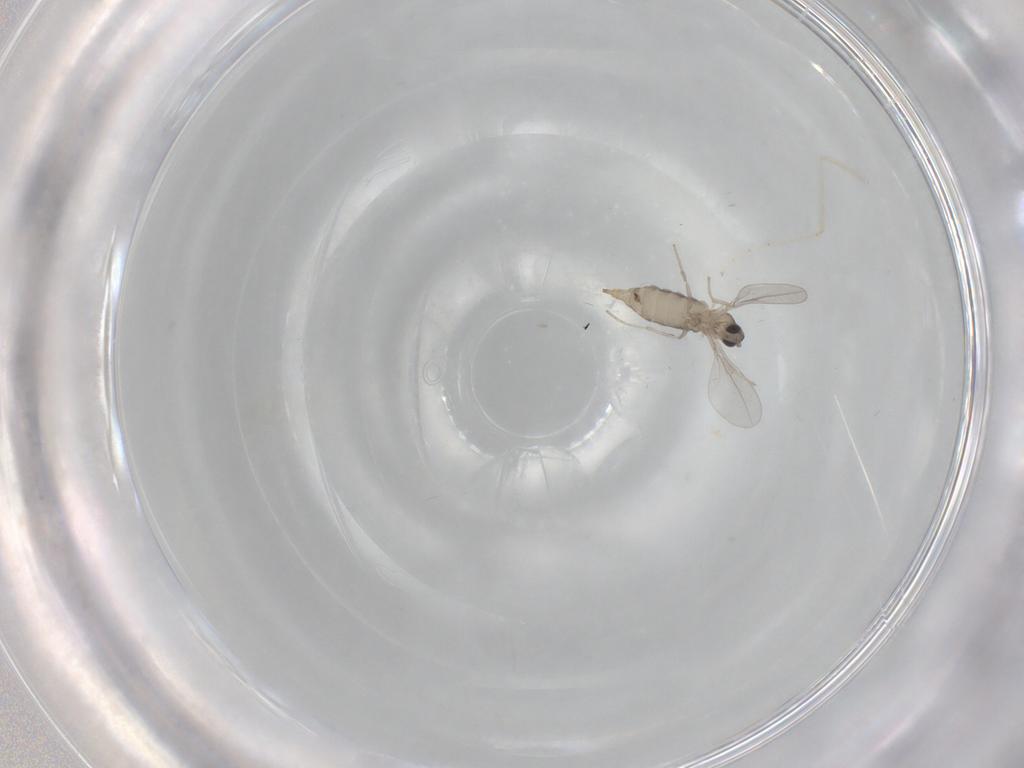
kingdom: Animalia
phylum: Arthropoda
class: Insecta
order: Diptera
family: Cecidomyiidae
